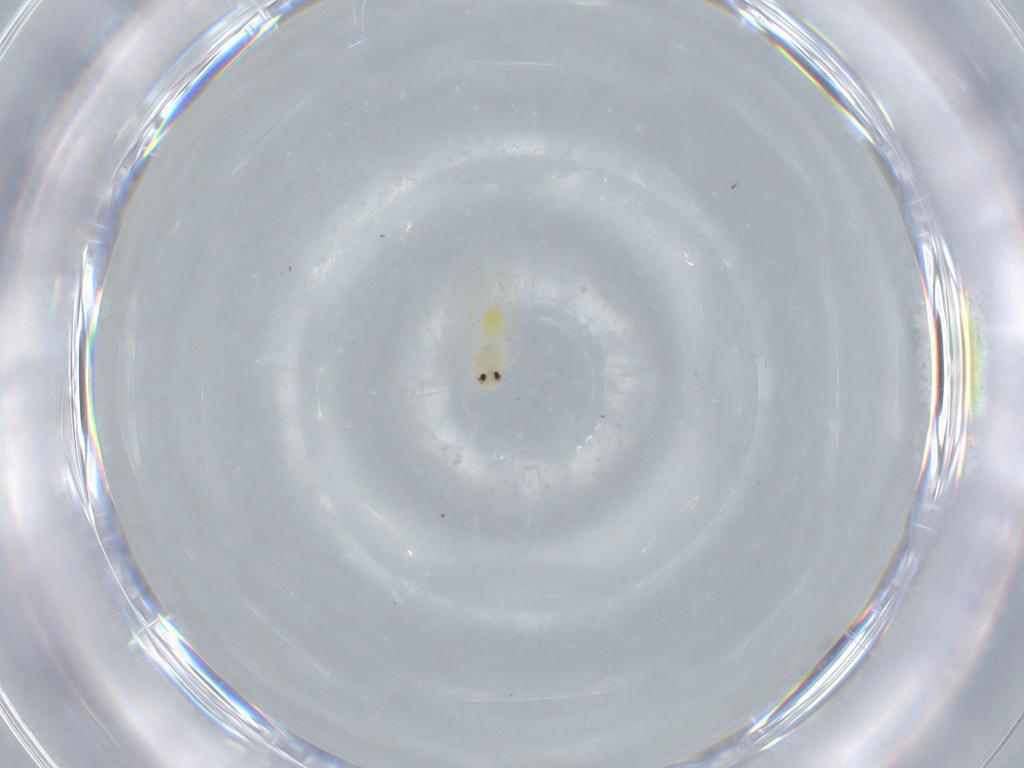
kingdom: Animalia
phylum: Arthropoda
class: Insecta
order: Hemiptera
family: Aleyrodidae
